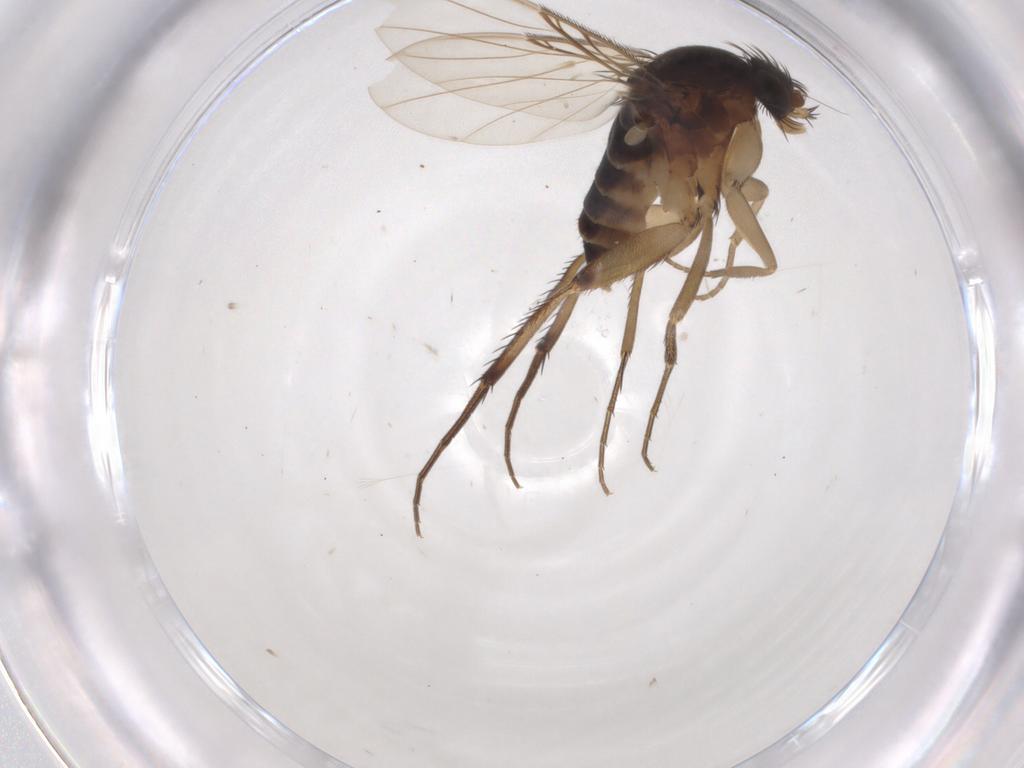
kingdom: Animalia
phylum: Arthropoda
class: Insecta
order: Diptera
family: Phoridae
